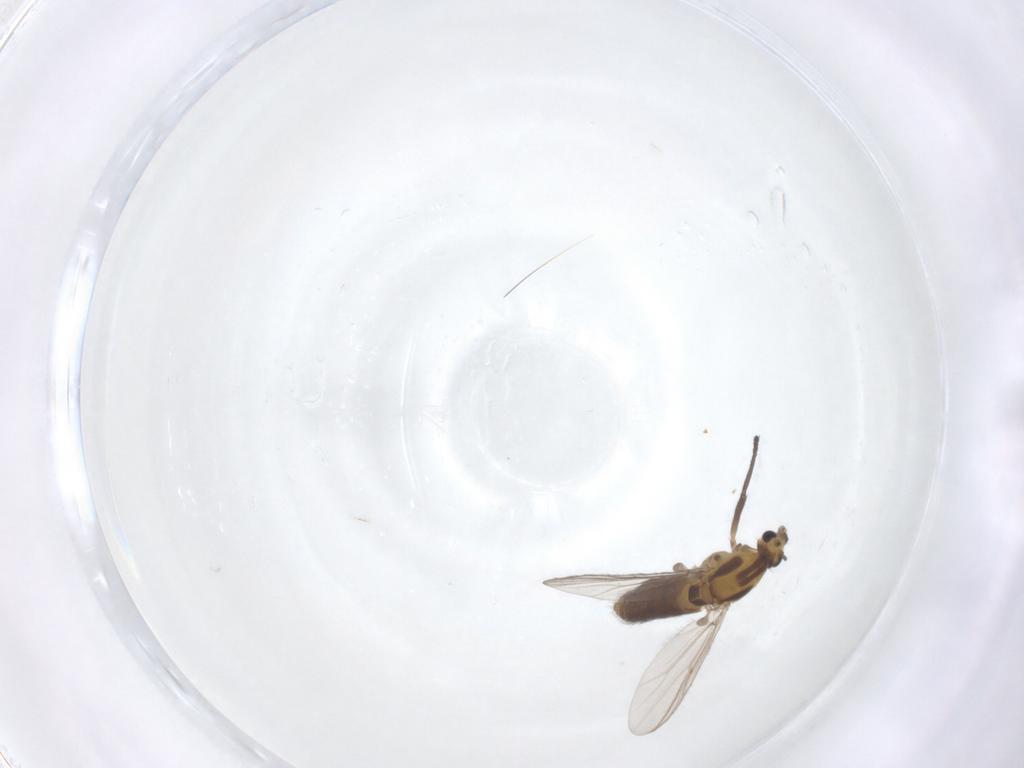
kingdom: Animalia
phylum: Arthropoda
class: Insecta
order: Diptera
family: Chironomidae
